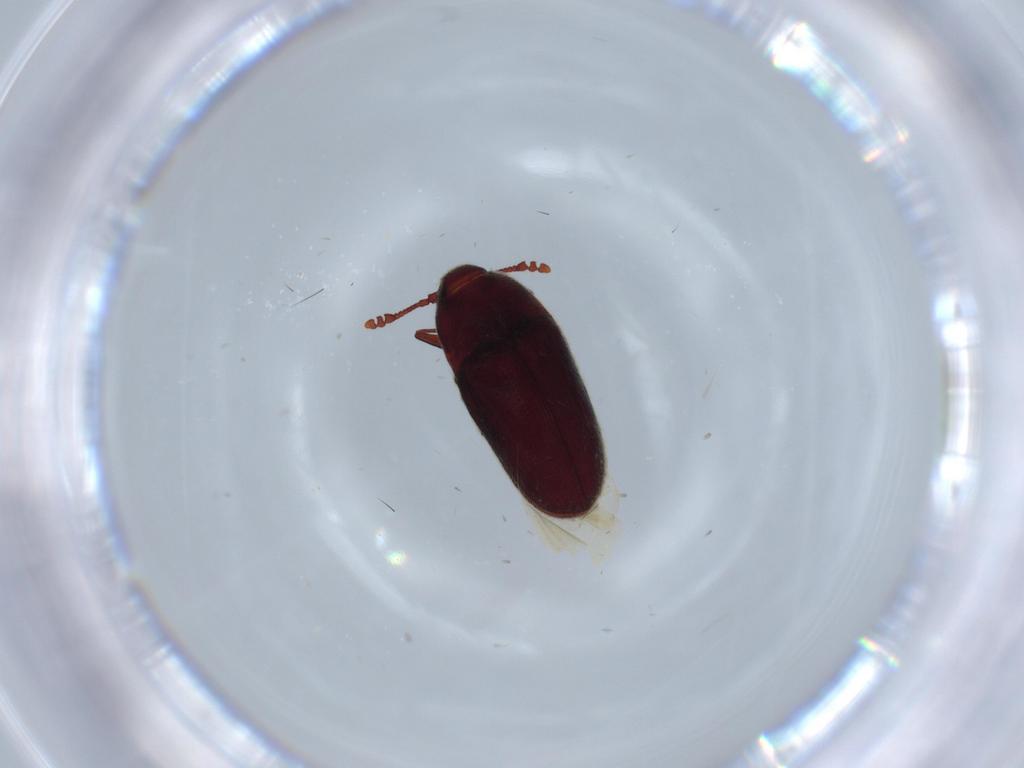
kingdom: Animalia
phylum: Arthropoda
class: Insecta
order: Coleoptera
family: Throscidae
